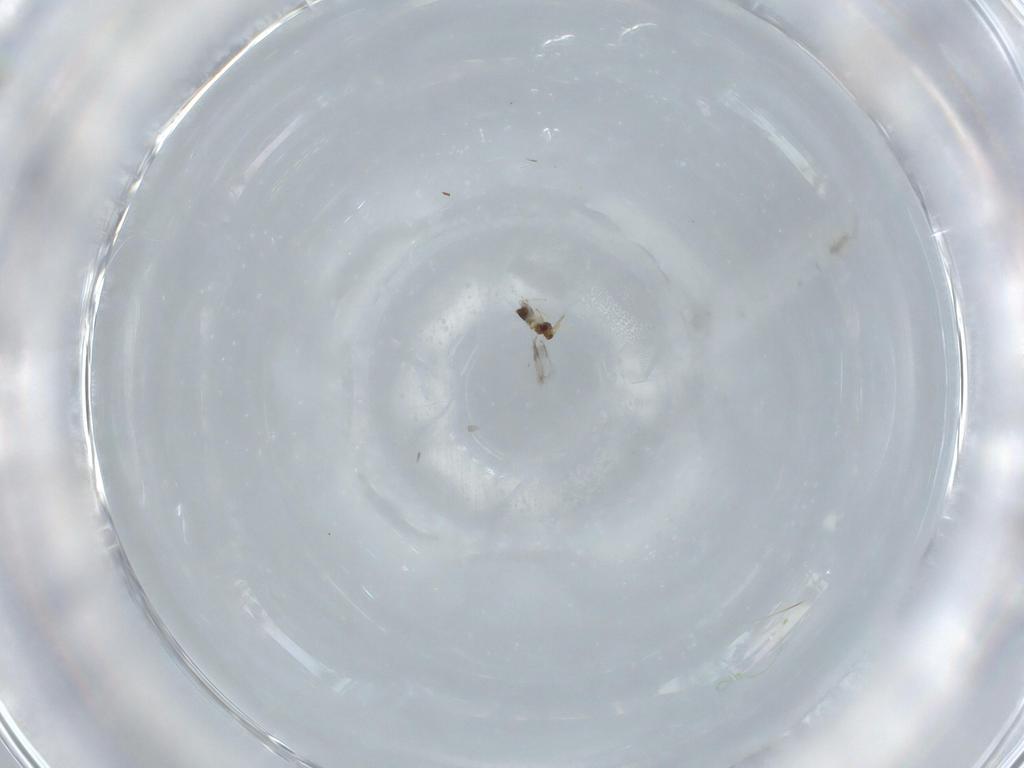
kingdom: Animalia
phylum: Arthropoda
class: Insecta
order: Hymenoptera
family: Aphelinidae
